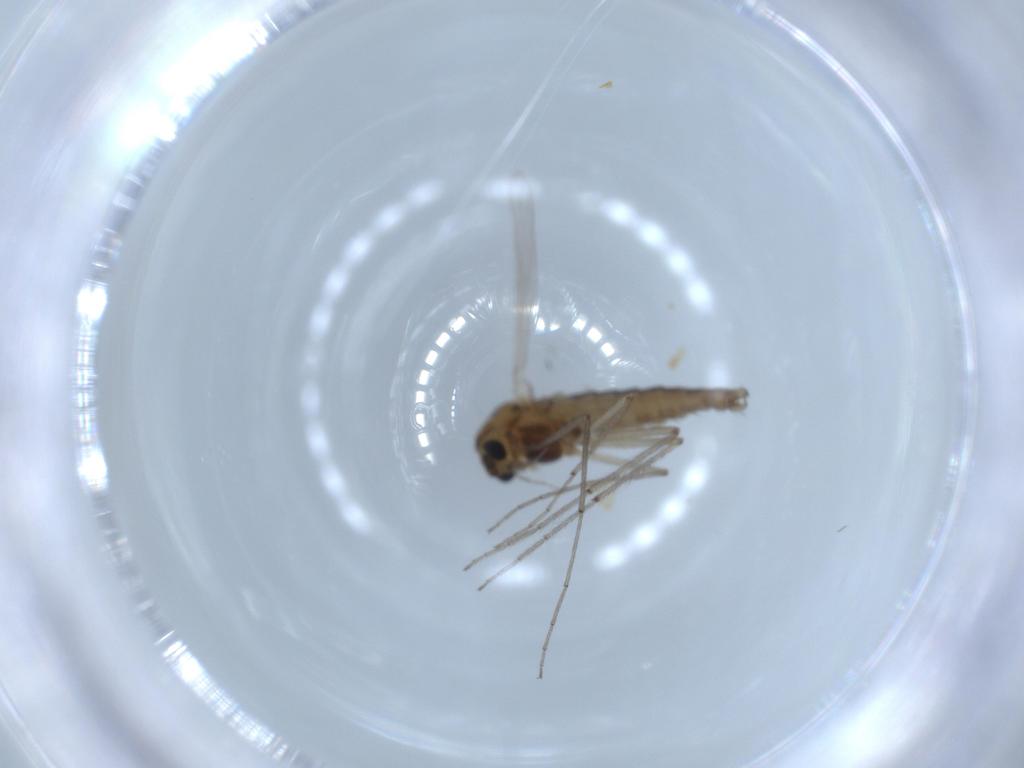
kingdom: Animalia
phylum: Arthropoda
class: Insecta
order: Diptera
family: Chironomidae
